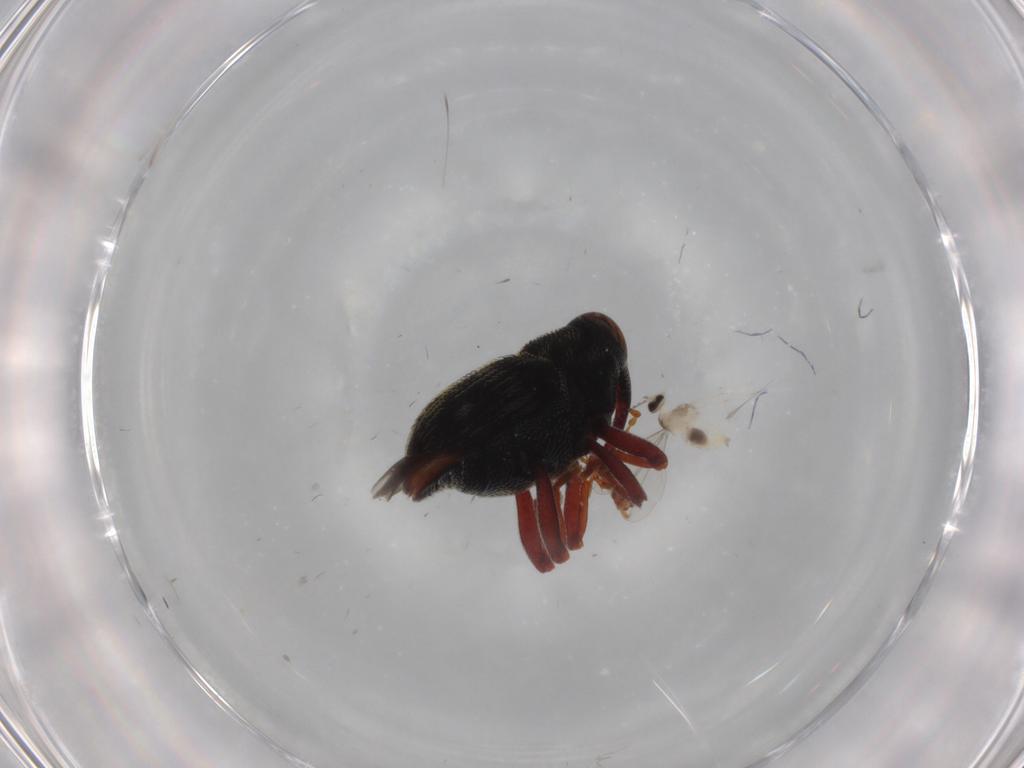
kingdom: Animalia
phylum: Arthropoda
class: Insecta
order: Diptera
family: Cecidomyiidae
